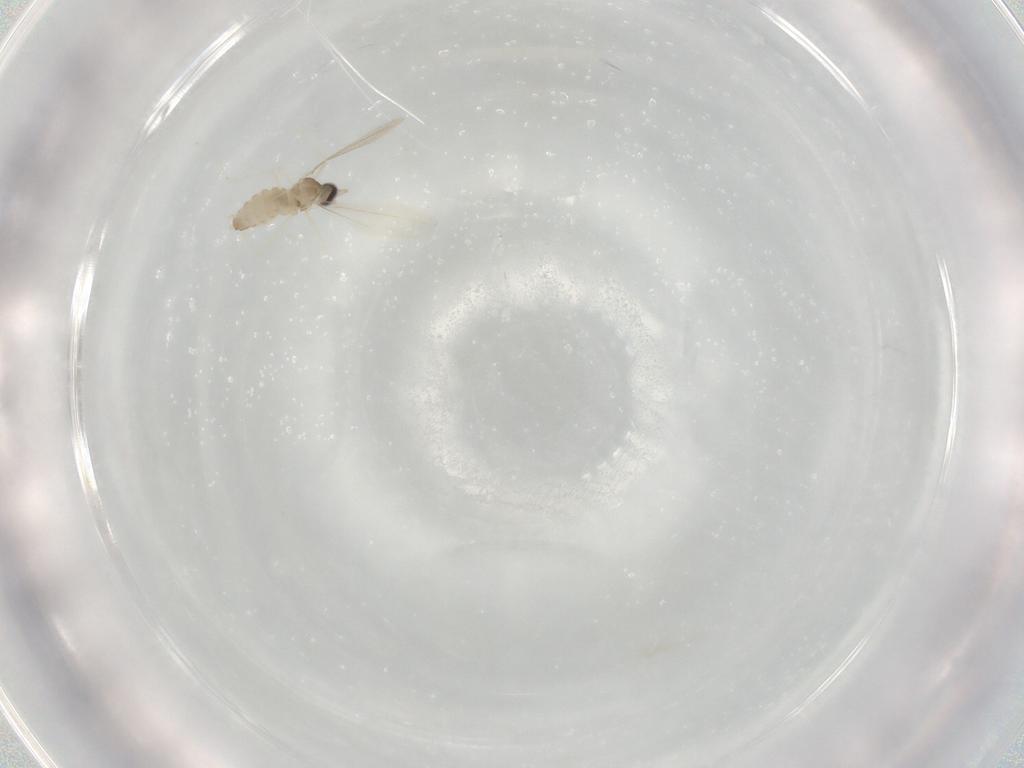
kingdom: Animalia
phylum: Arthropoda
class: Insecta
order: Diptera
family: Cecidomyiidae
